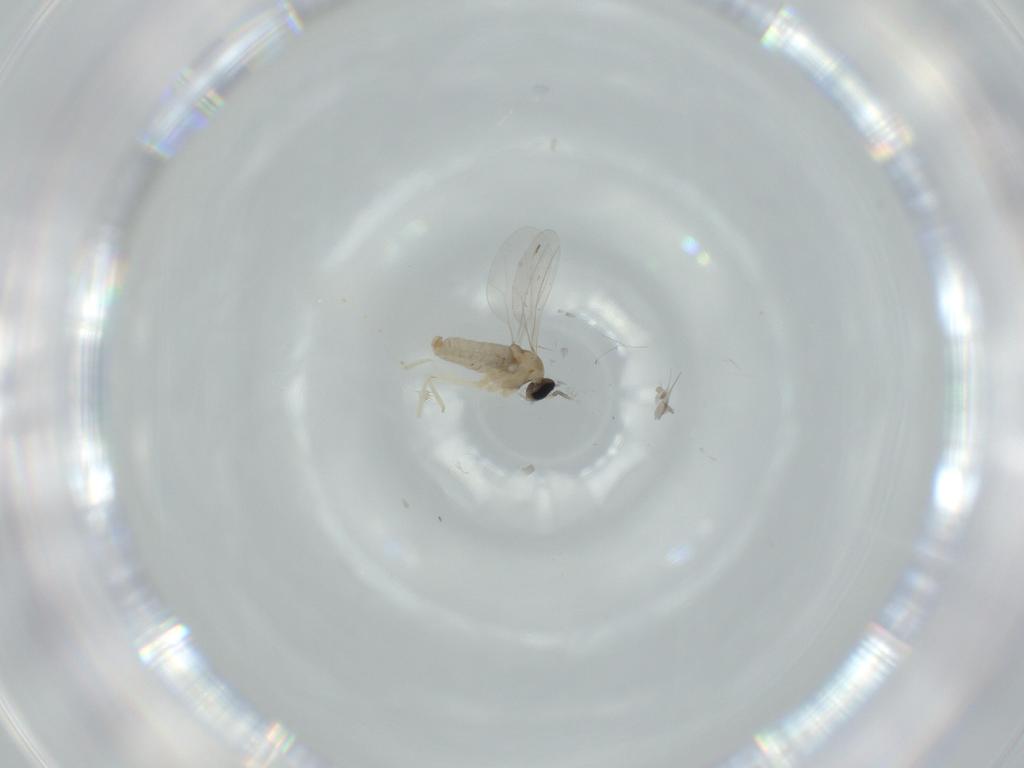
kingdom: Animalia
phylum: Arthropoda
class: Insecta
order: Diptera
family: Cecidomyiidae
